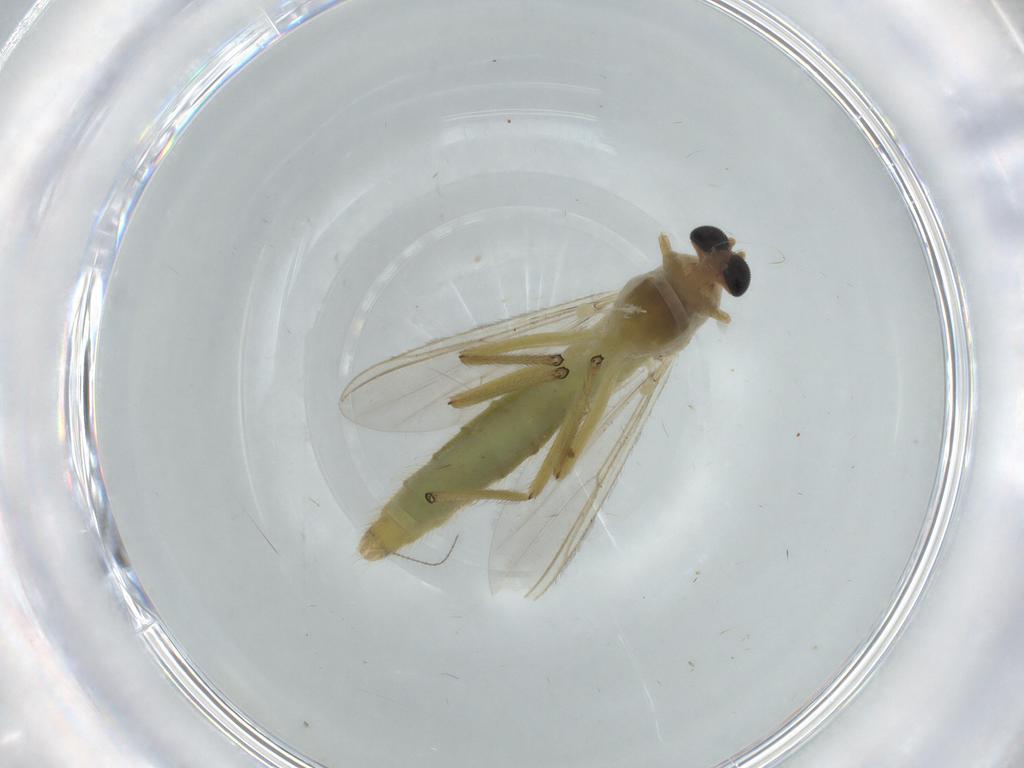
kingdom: Animalia
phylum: Arthropoda
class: Insecta
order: Diptera
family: Chironomidae
